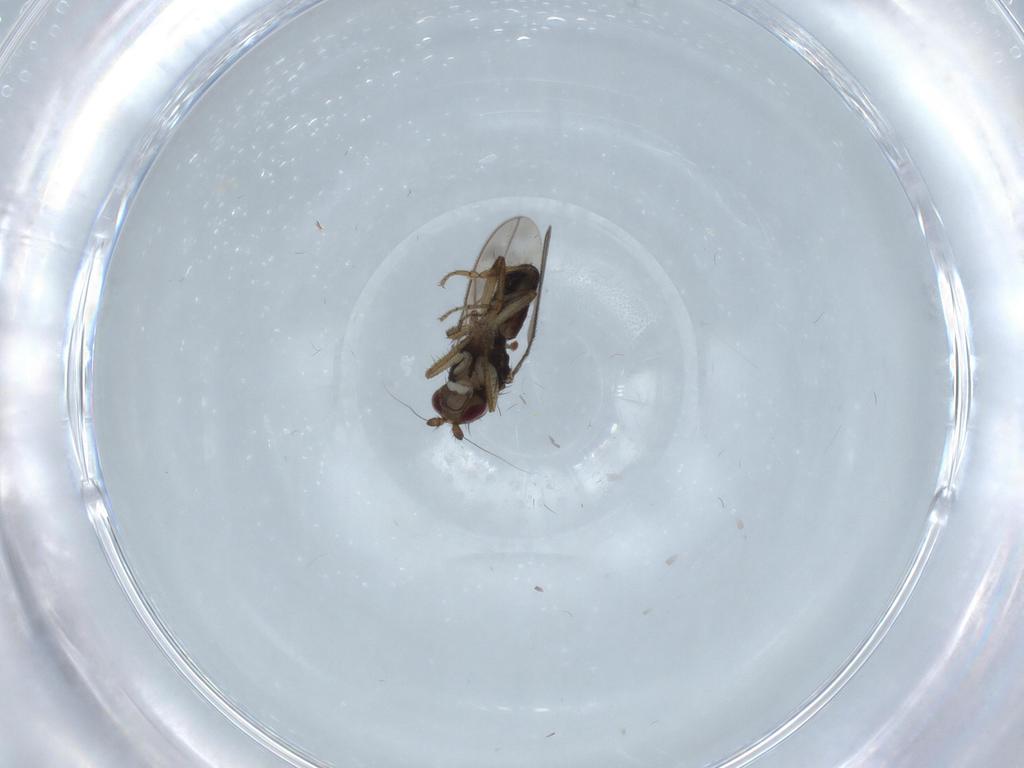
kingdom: Animalia
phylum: Arthropoda
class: Insecta
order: Diptera
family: Sphaeroceridae
